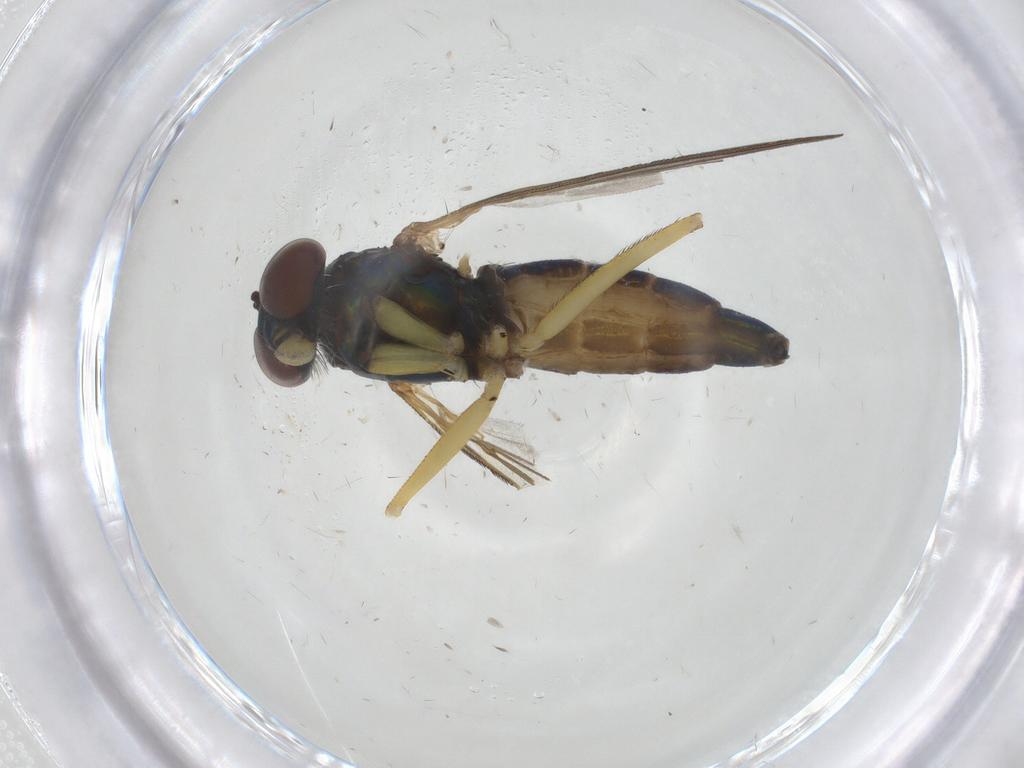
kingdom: Animalia
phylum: Arthropoda
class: Insecta
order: Diptera
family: Dolichopodidae
